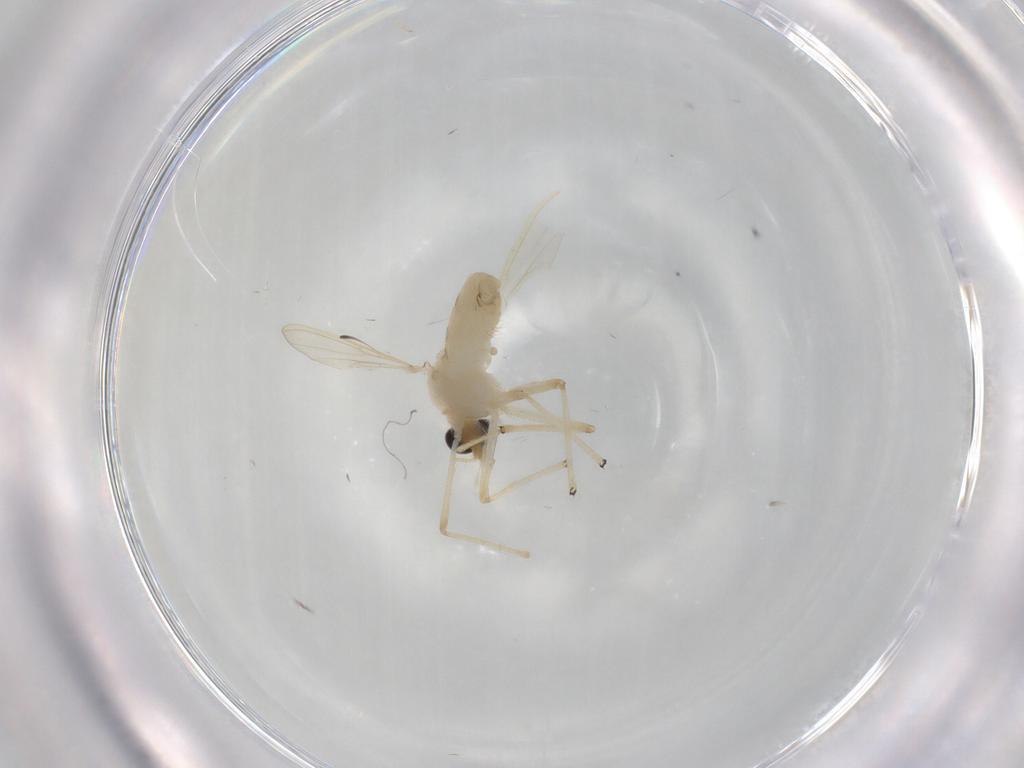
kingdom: Animalia
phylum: Arthropoda
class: Insecta
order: Diptera
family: Chironomidae
